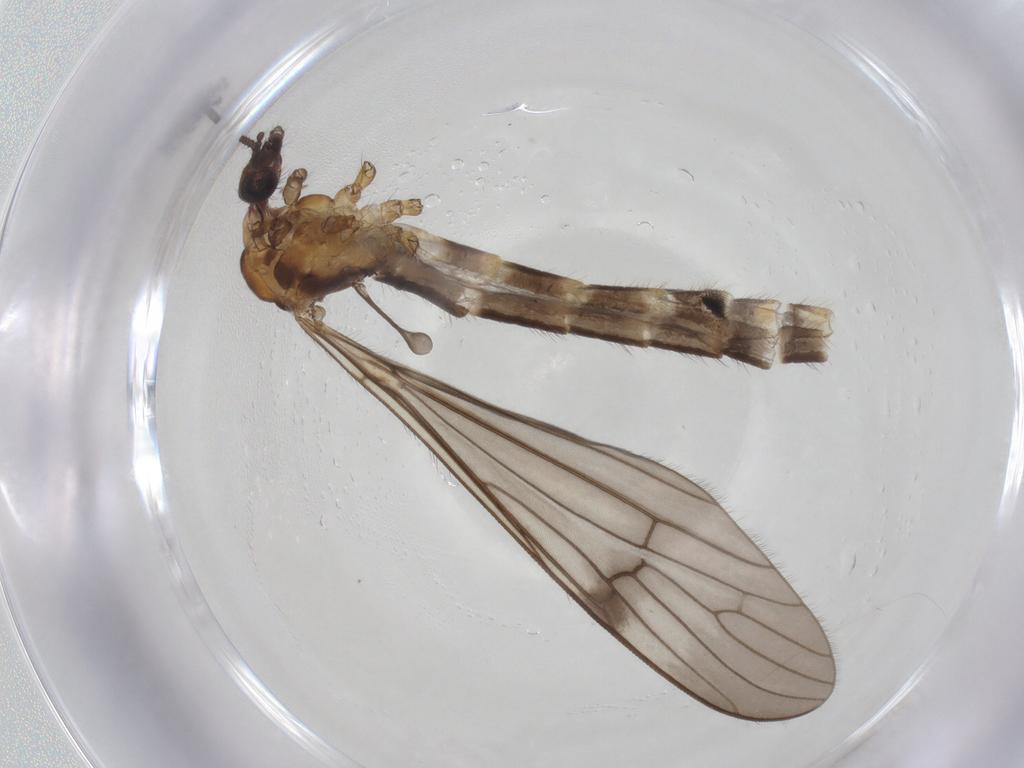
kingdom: Animalia
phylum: Arthropoda
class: Insecta
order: Diptera
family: Limoniidae
